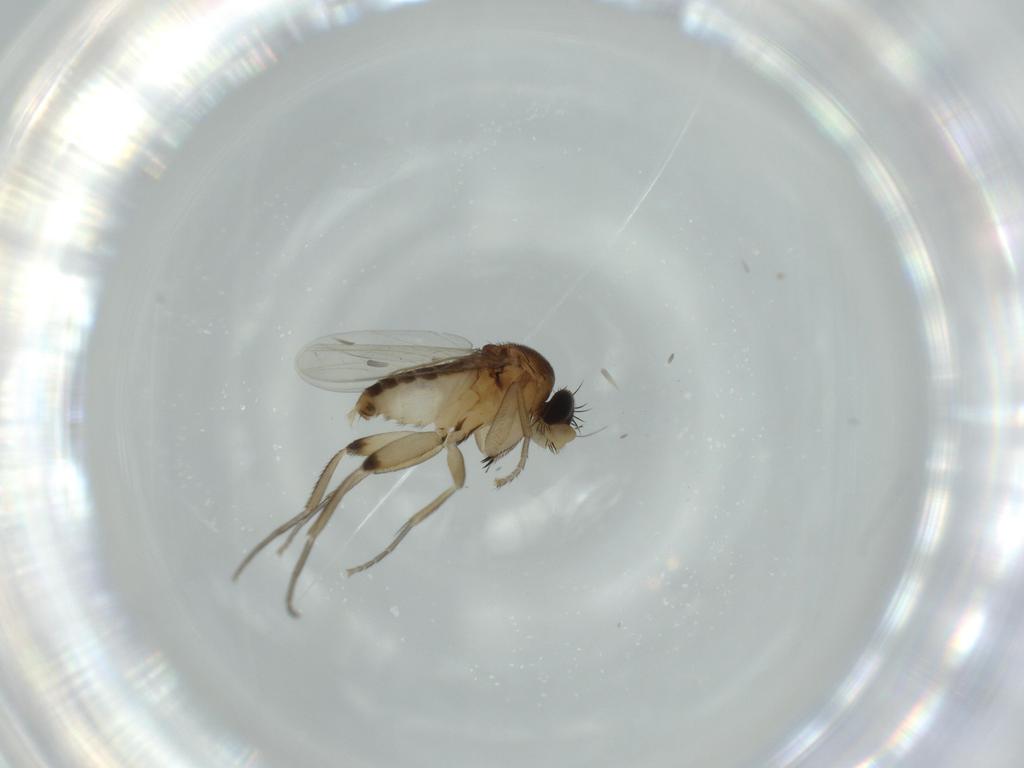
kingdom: Animalia
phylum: Arthropoda
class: Insecta
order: Diptera
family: Phoridae
